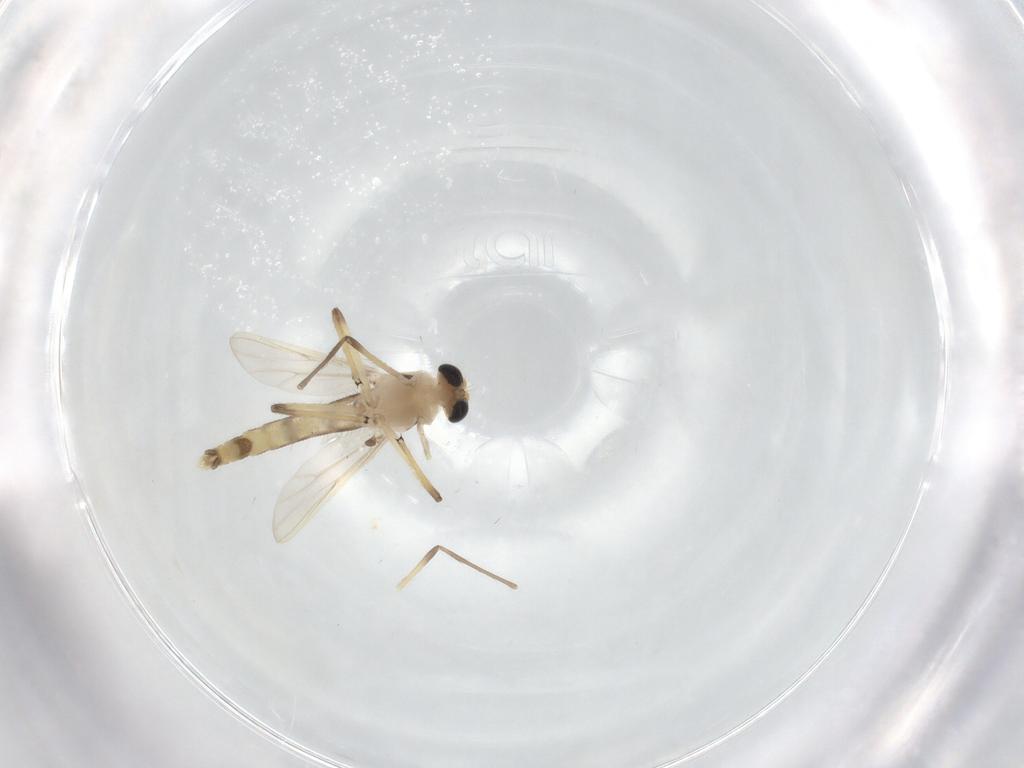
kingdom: Animalia
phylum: Arthropoda
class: Insecta
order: Diptera
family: Chironomidae
